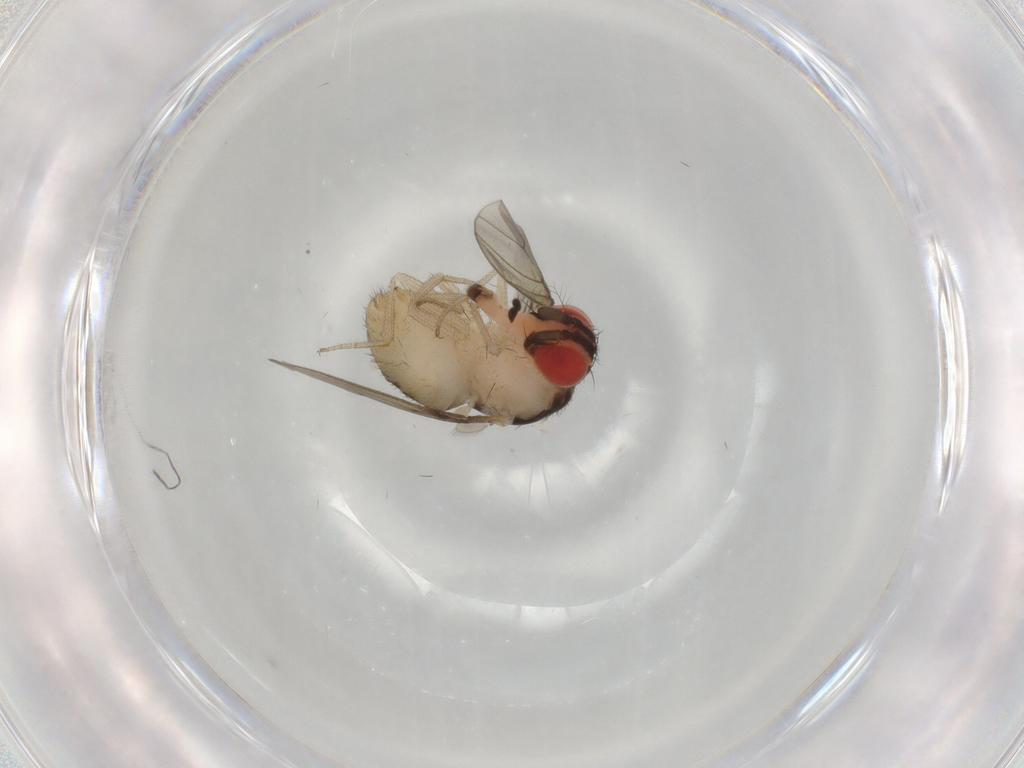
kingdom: Animalia
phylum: Arthropoda
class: Insecta
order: Diptera
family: Drosophilidae
